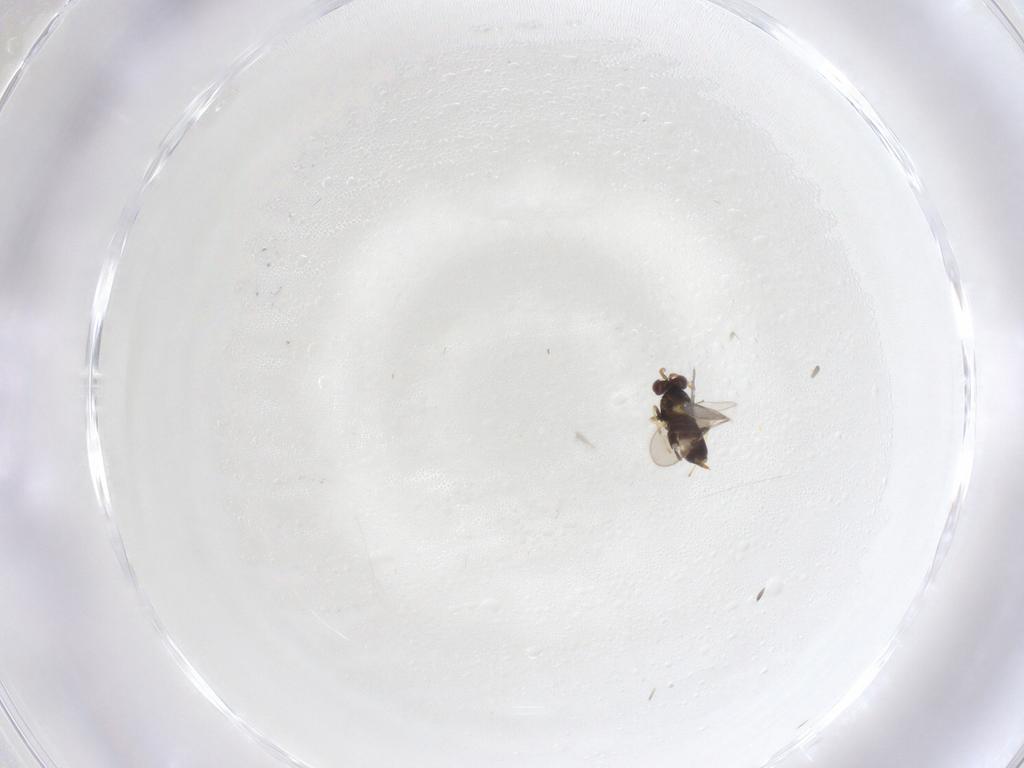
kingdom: Animalia
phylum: Arthropoda
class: Insecta
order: Hymenoptera
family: Aphelinidae
